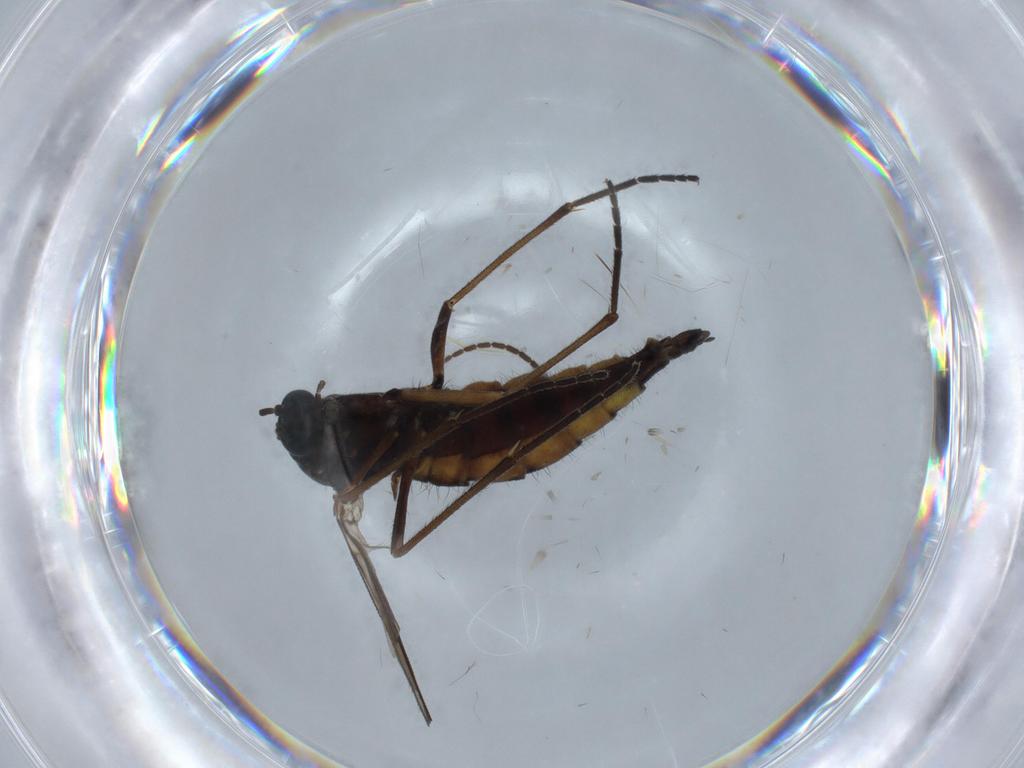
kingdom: Animalia
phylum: Arthropoda
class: Insecta
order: Diptera
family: Sciaridae
